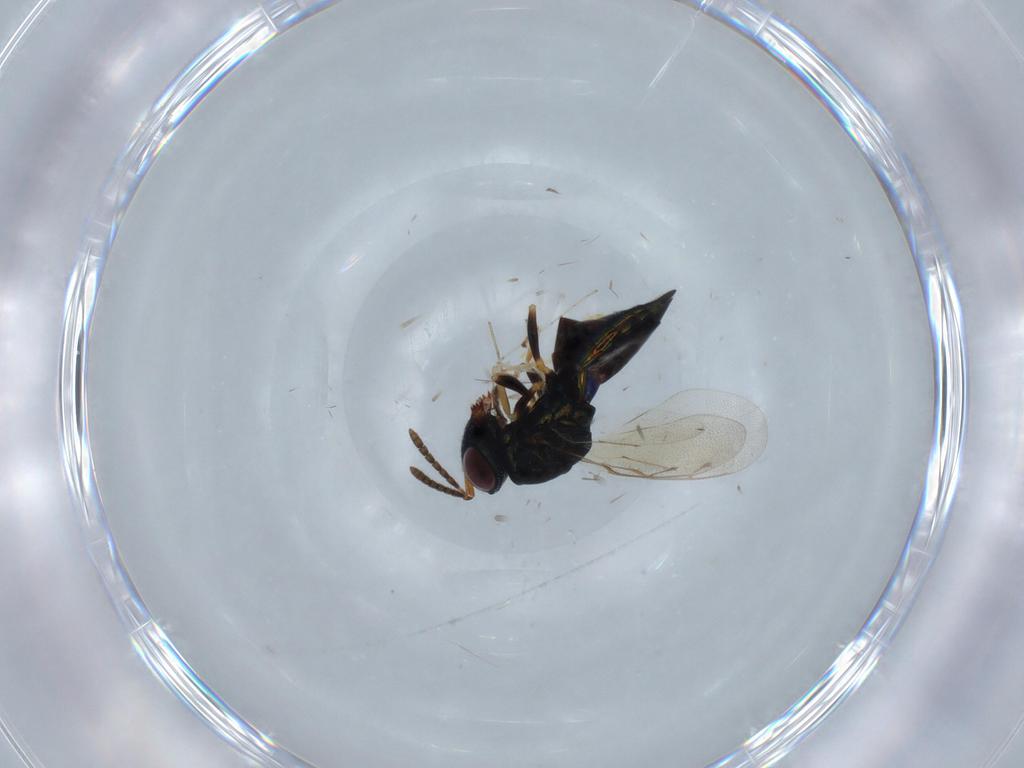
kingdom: Animalia
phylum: Arthropoda
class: Insecta
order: Hymenoptera
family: Pteromalidae
